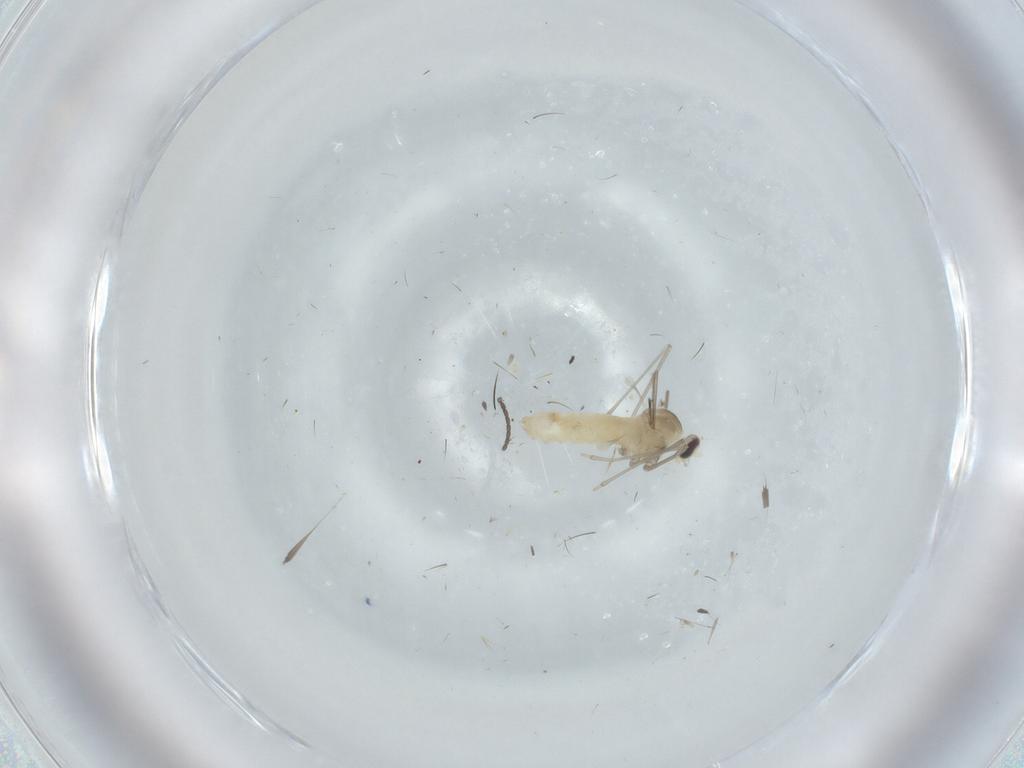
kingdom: Animalia
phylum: Arthropoda
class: Insecta
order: Diptera
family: Cecidomyiidae
